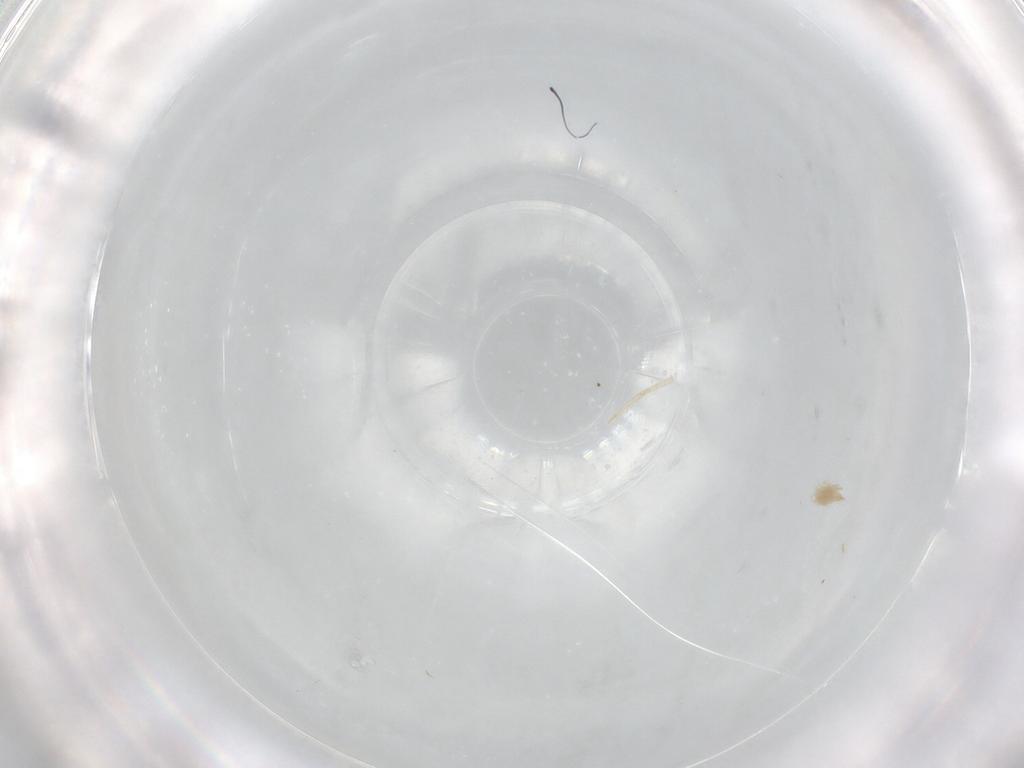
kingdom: Animalia
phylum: Arthropoda
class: Arachnida
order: Trombidiformes
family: Cunaxidae
